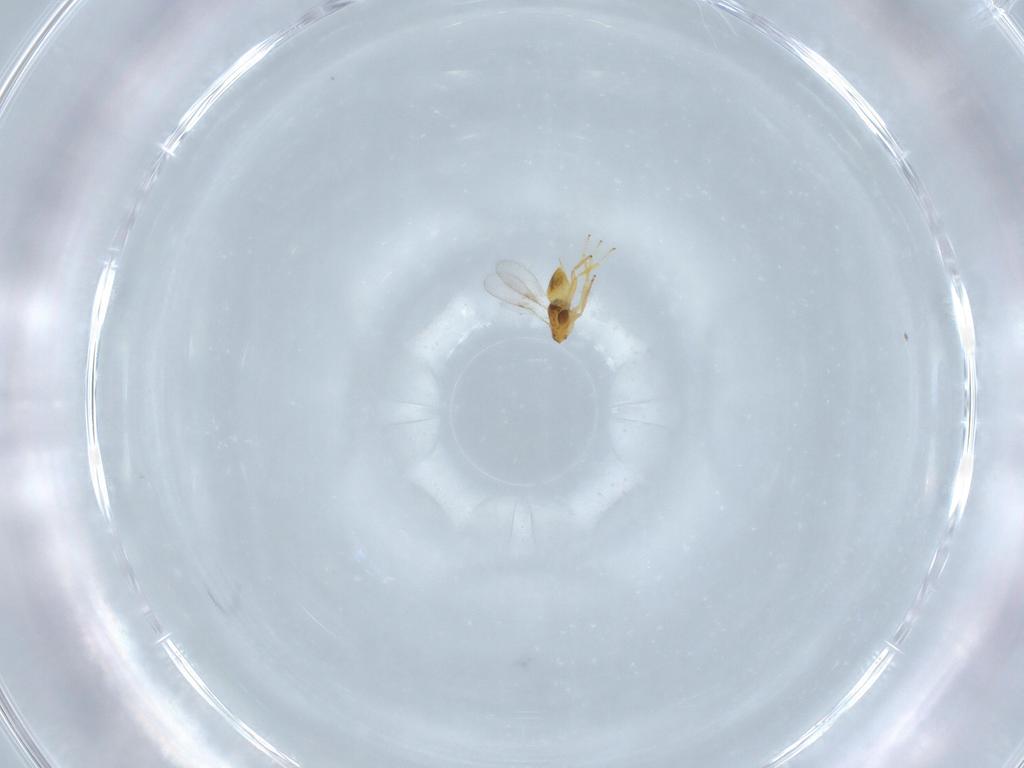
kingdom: Animalia
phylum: Arthropoda
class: Insecta
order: Hymenoptera
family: Encyrtidae
